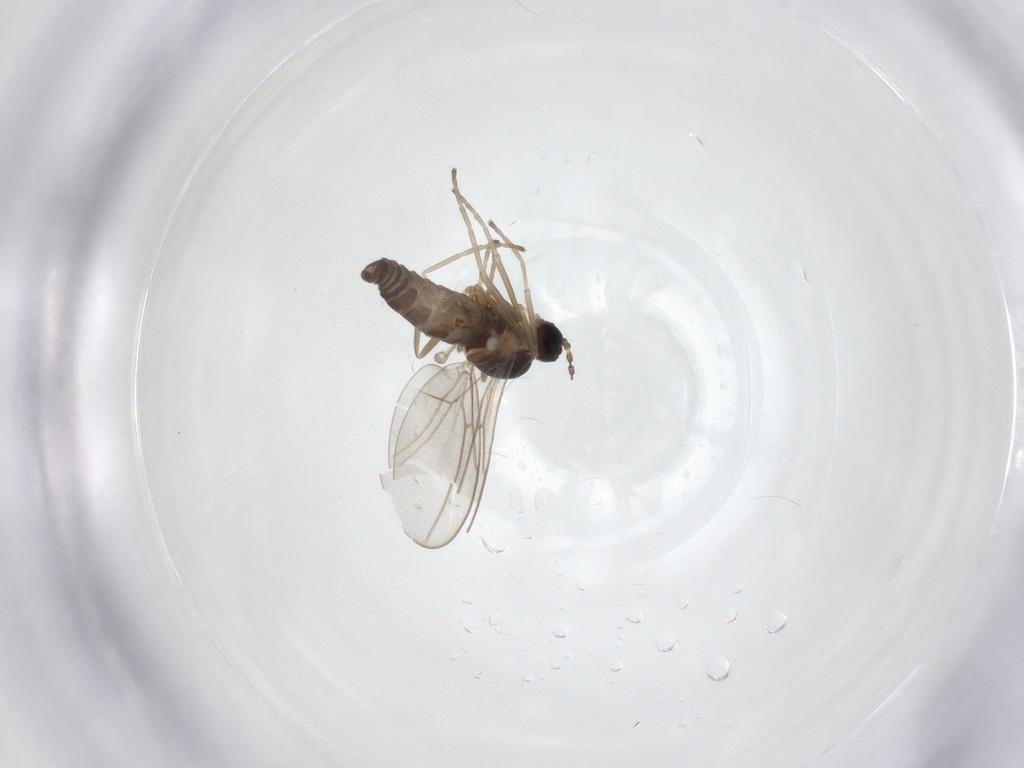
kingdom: Animalia
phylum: Arthropoda
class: Insecta
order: Diptera
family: Cecidomyiidae
